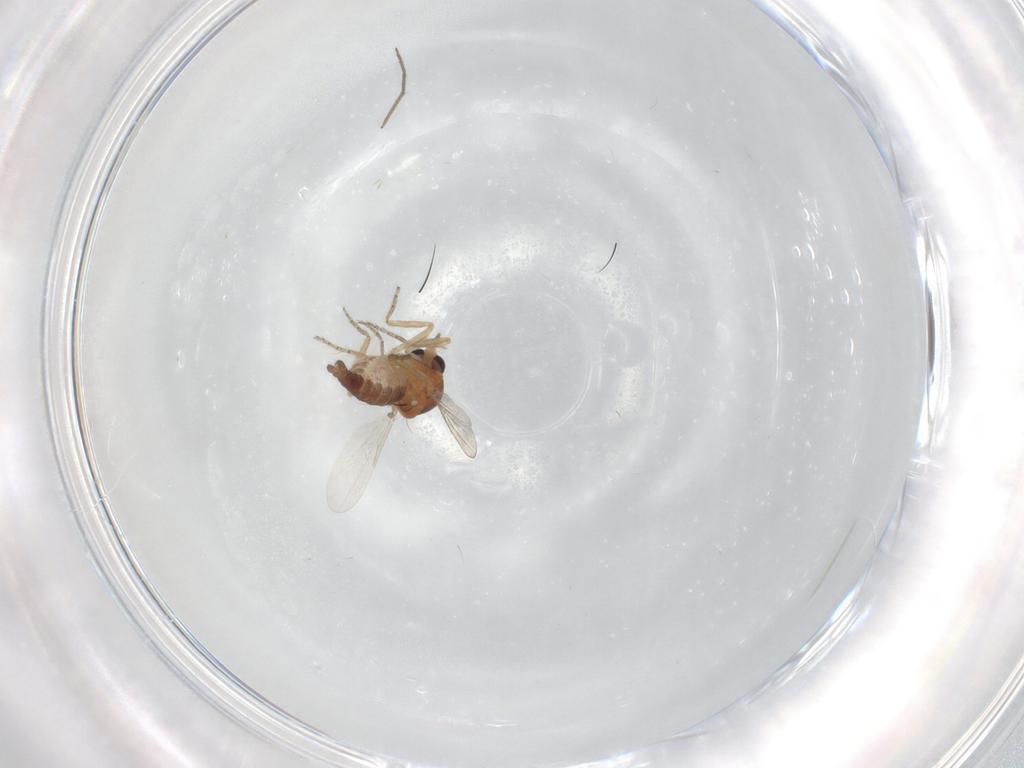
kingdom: Animalia
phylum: Arthropoda
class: Insecta
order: Diptera
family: Ceratopogonidae
